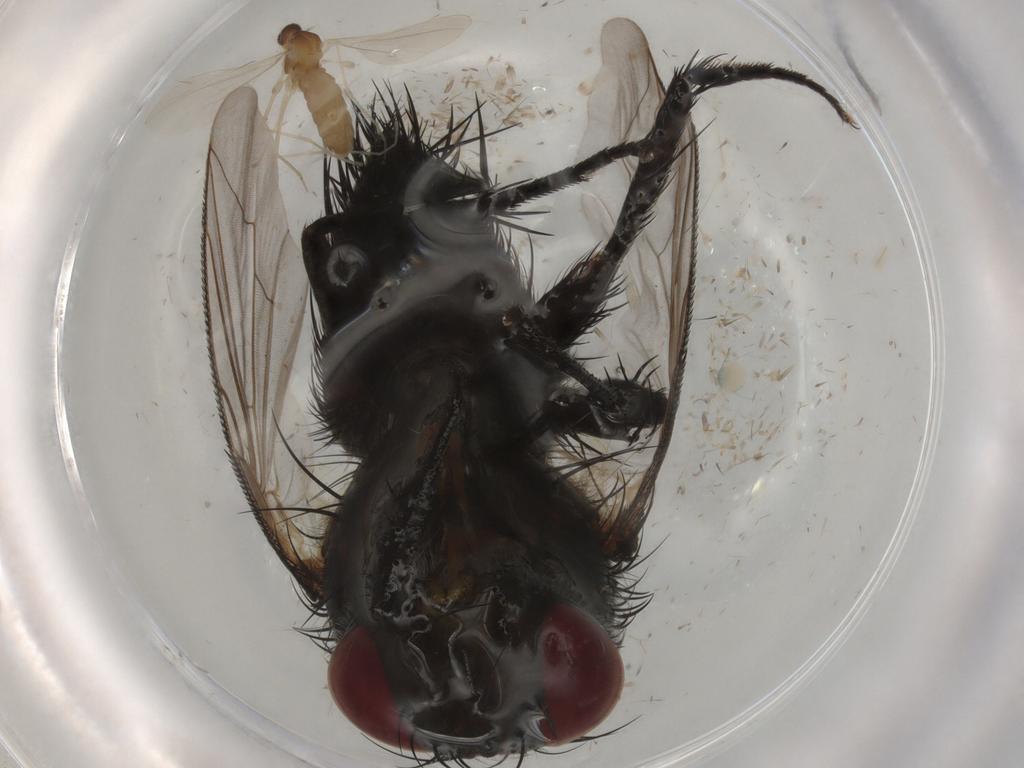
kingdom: Animalia
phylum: Arthropoda
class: Insecta
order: Diptera
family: Tachinidae
